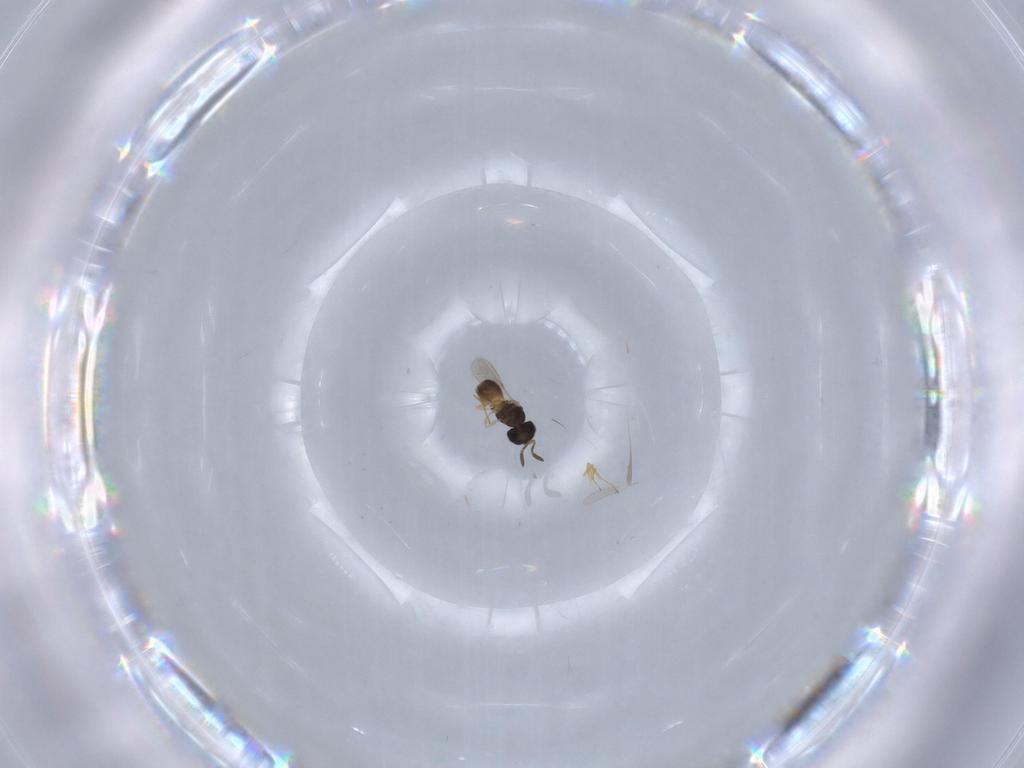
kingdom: Animalia
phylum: Arthropoda
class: Insecta
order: Hymenoptera
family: Scelionidae
